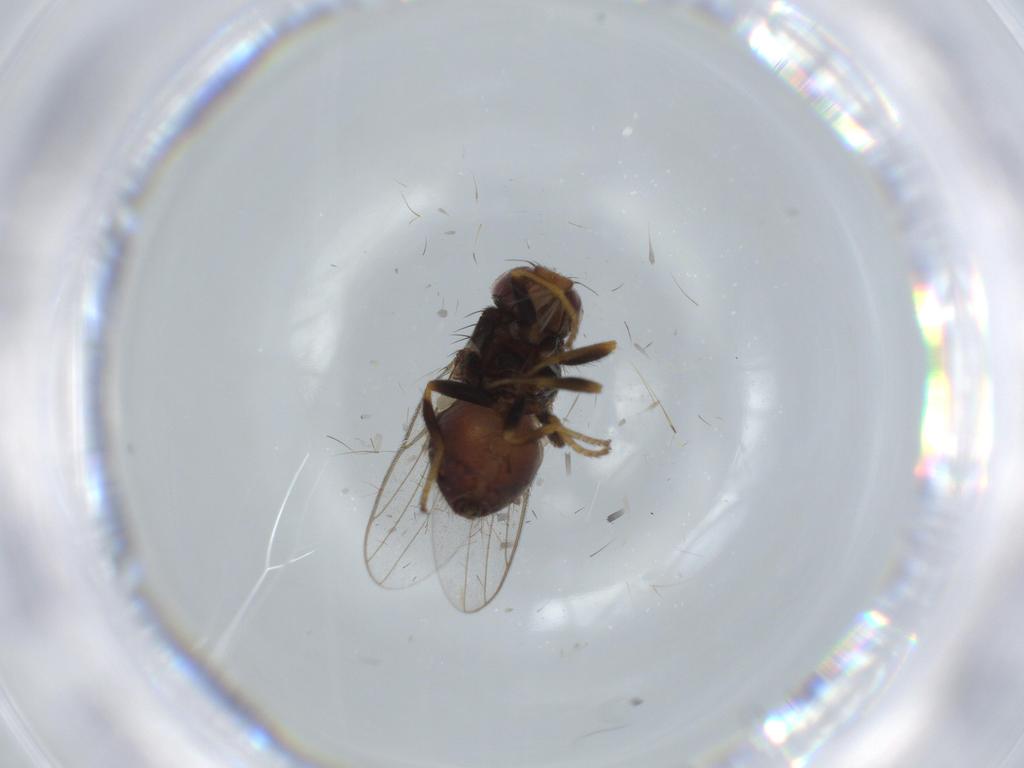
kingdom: Animalia
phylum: Arthropoda
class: Insecta
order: Diptera
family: Chloropidae
